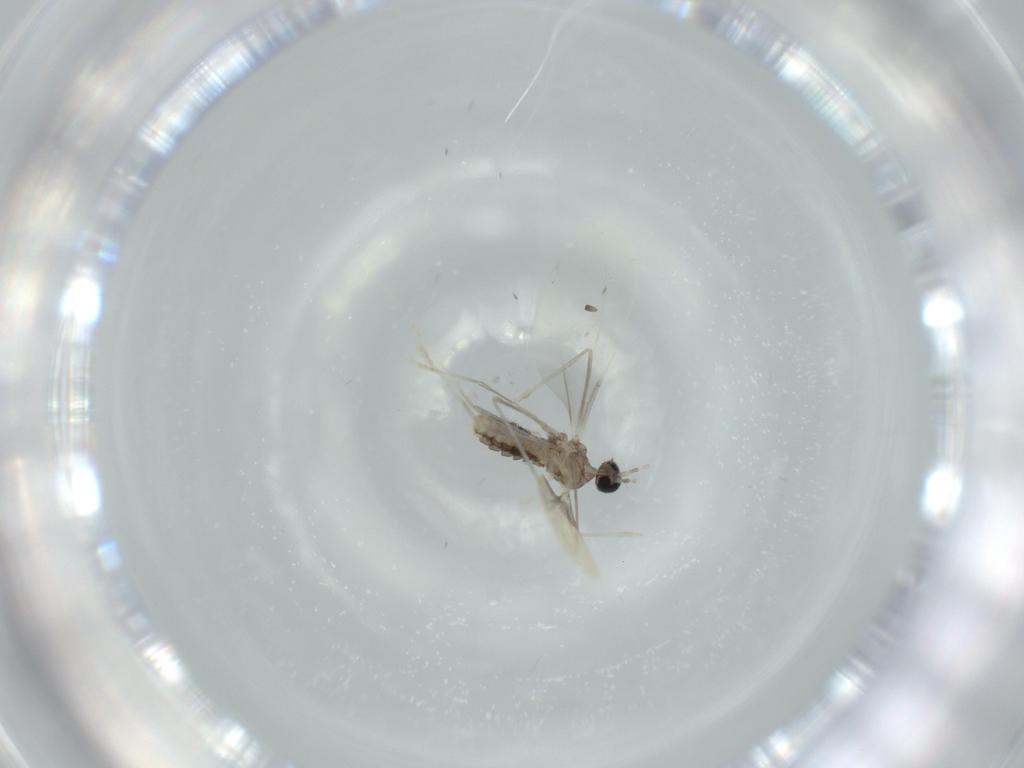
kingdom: Animalia
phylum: Arthropoda
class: Insecta
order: Diptera
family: Cecidomyiidae
